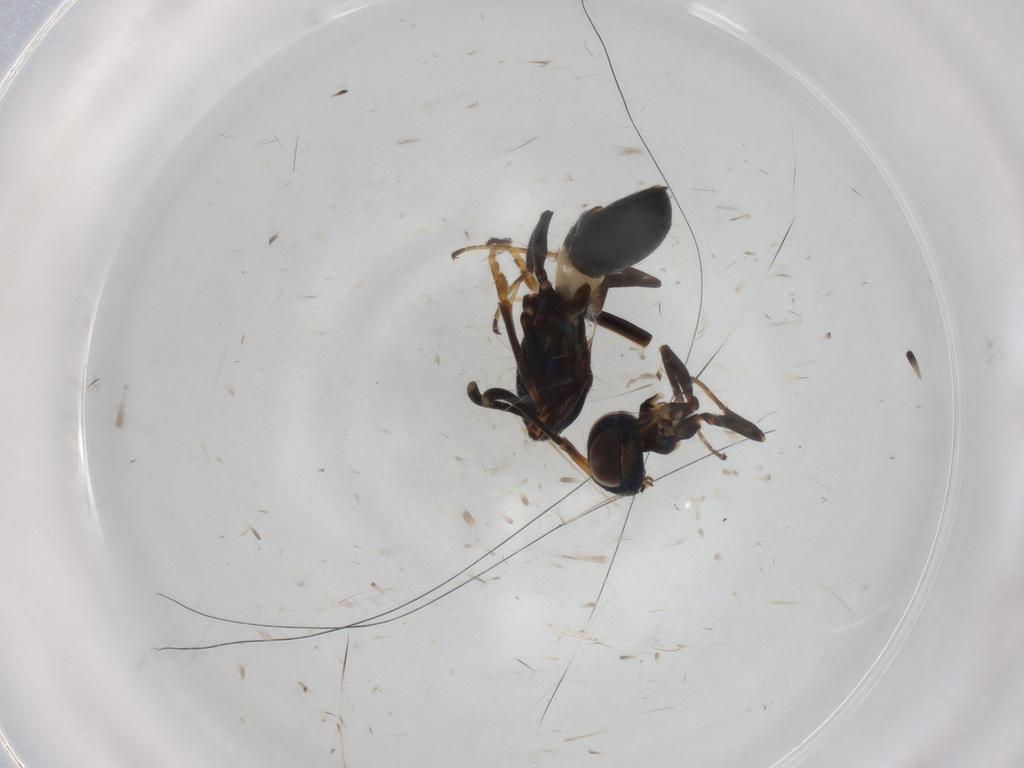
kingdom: Animalia
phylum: Arthropoda
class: Insecta
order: Hymenoptera
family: Eupelmidae
